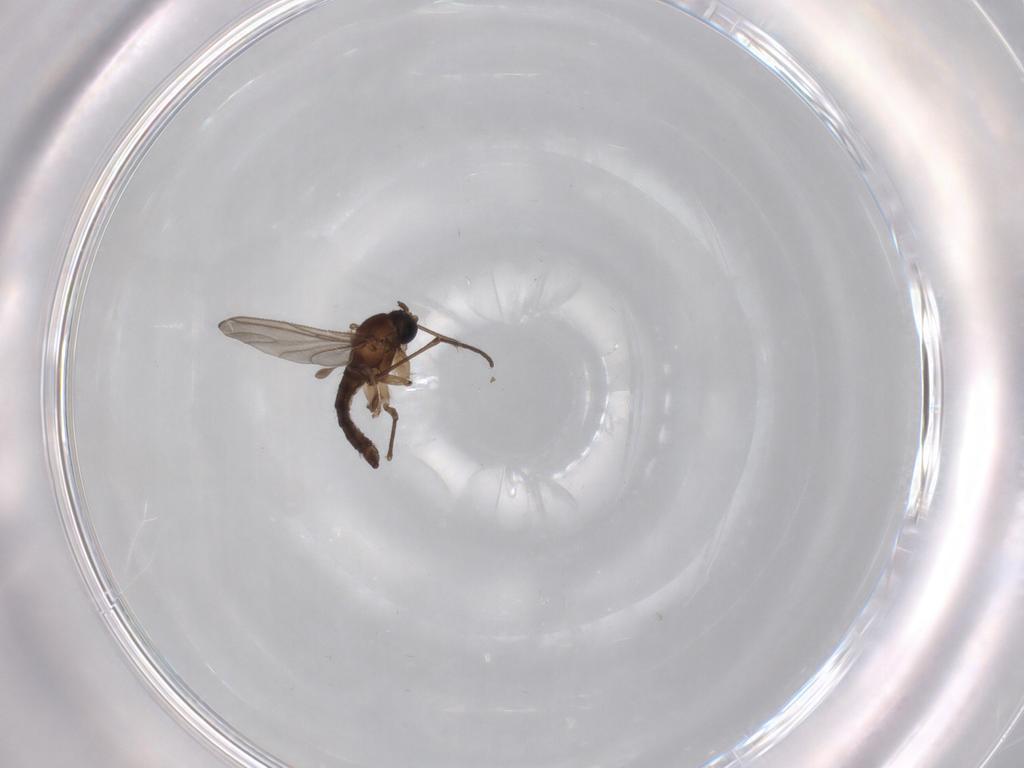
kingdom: Animalia
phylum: Arthropoda
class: Insecta
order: Diptera
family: Sciaridae
